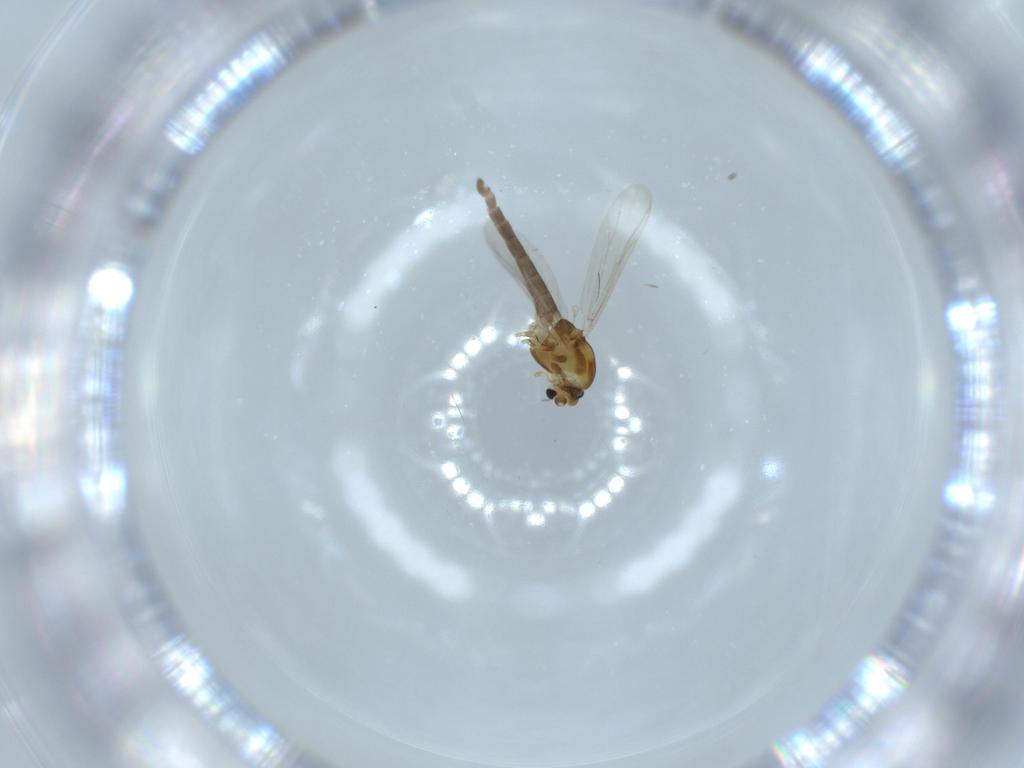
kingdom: Animalia
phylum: Arthropoda
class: Insecta
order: Diptera
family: Chironomidae
